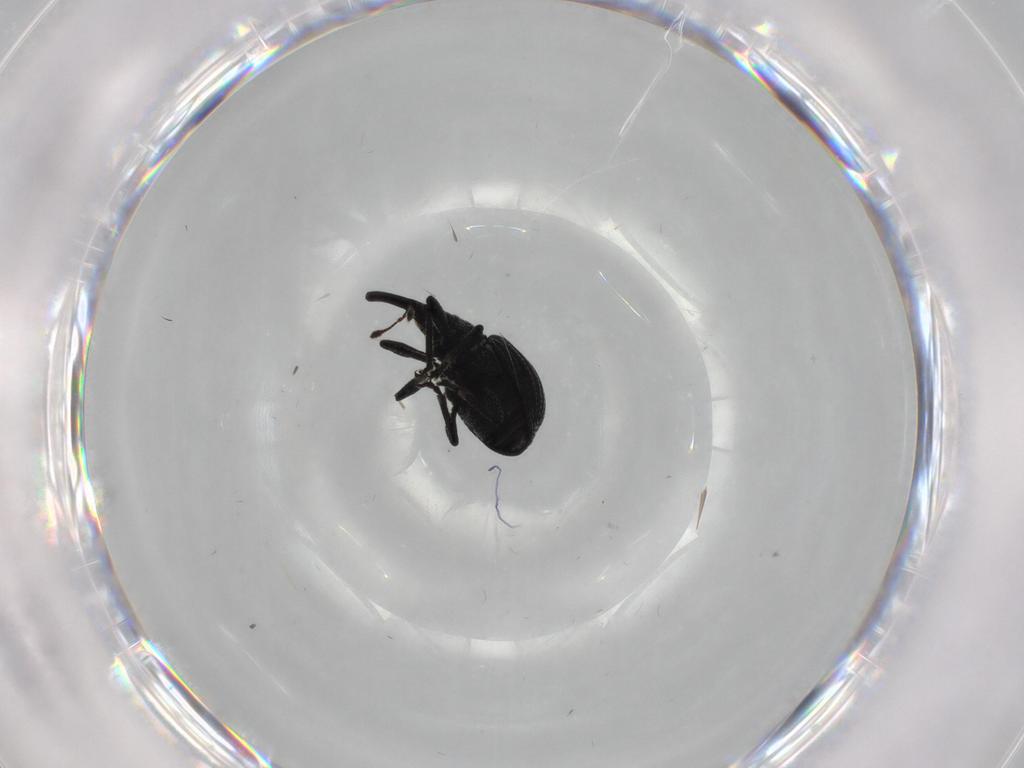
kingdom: Animalia
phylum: Arthropoda
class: Insecta
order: Coleoptera
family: Brentidae
